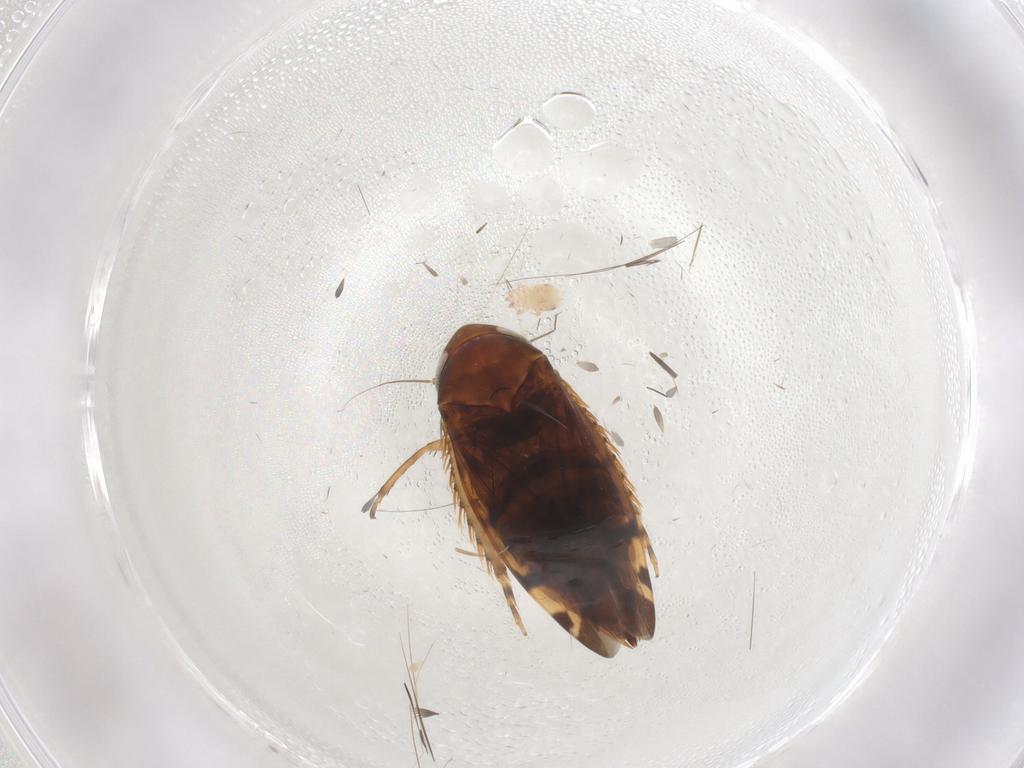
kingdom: Animalia
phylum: Arthropoda
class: Insecta
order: Hemiptera
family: Cicadellidae
